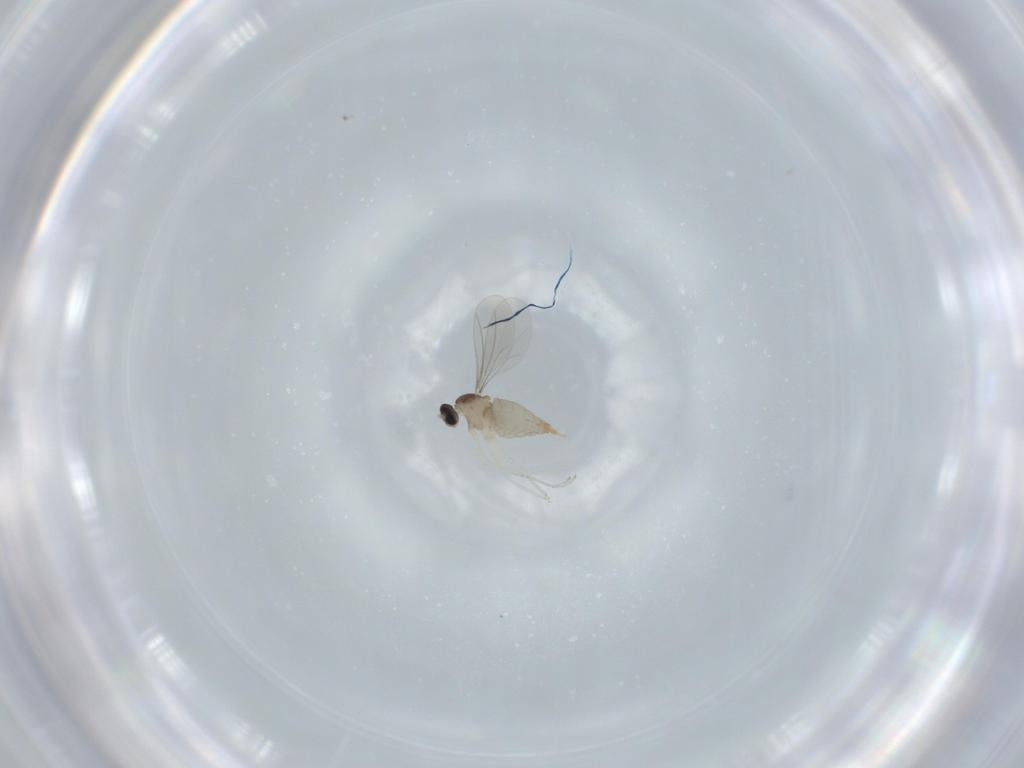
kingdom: Animalia
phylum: Arthropoda
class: Insecta
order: Diptera
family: Cecidomyiidae
